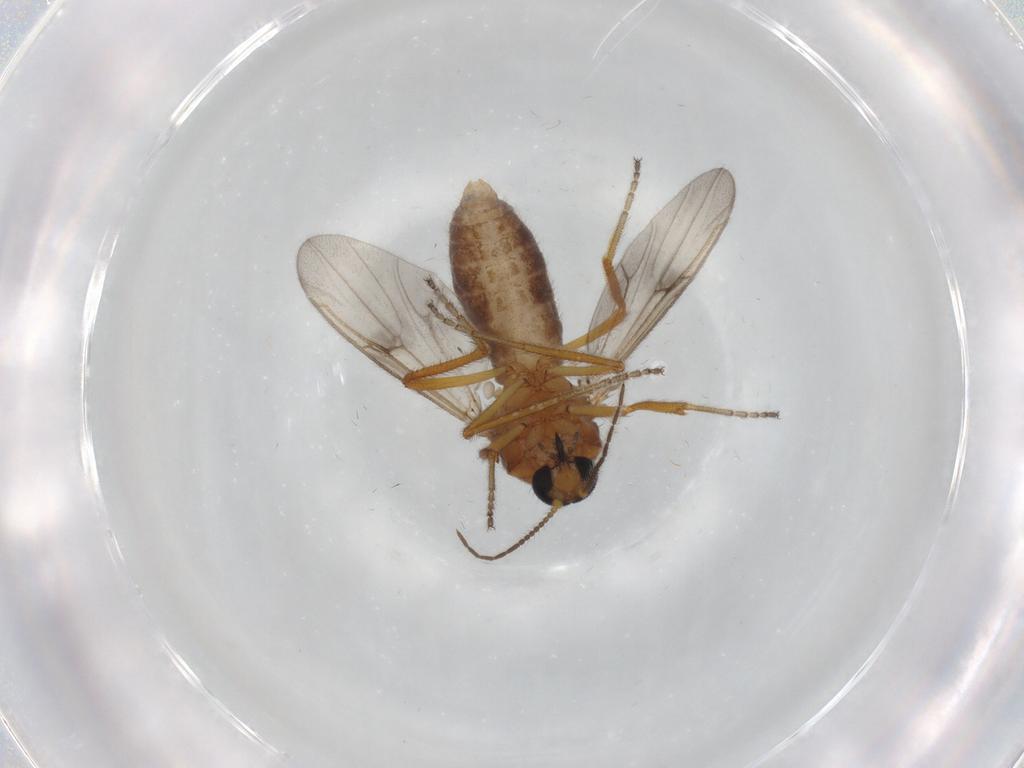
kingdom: Animalia
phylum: Arthropoda
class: Insecta
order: Diptera
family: Ceratopogonidae
